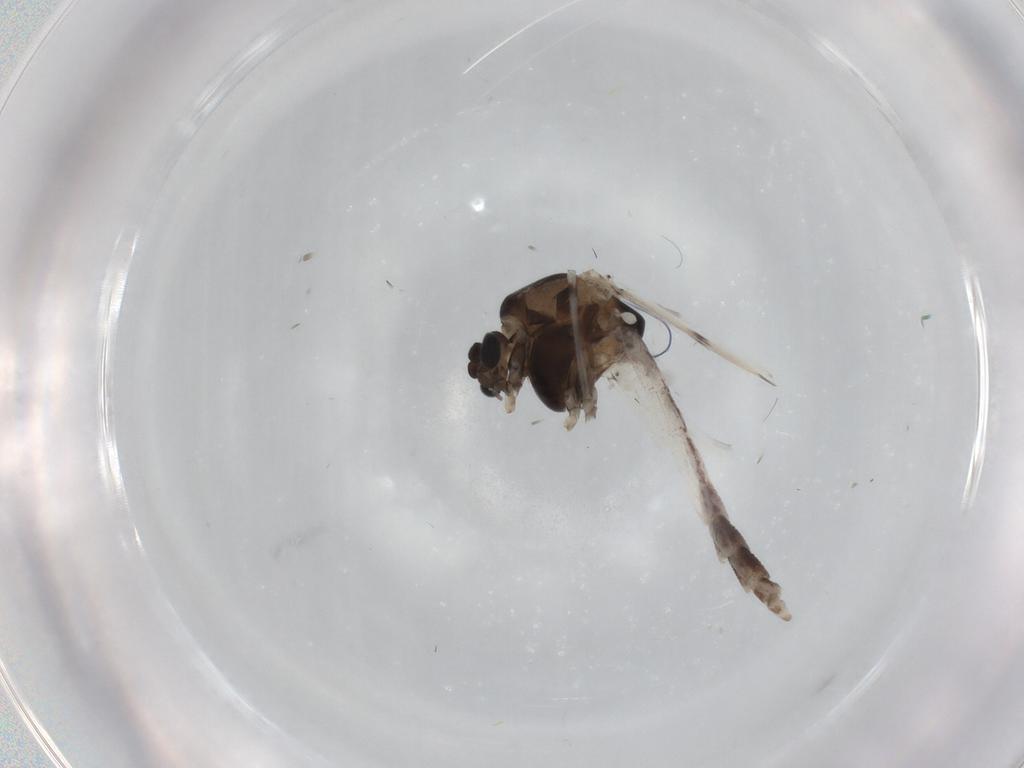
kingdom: Animalia
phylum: Arthropoda
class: Insecta
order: Diptera
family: Chironomidae
